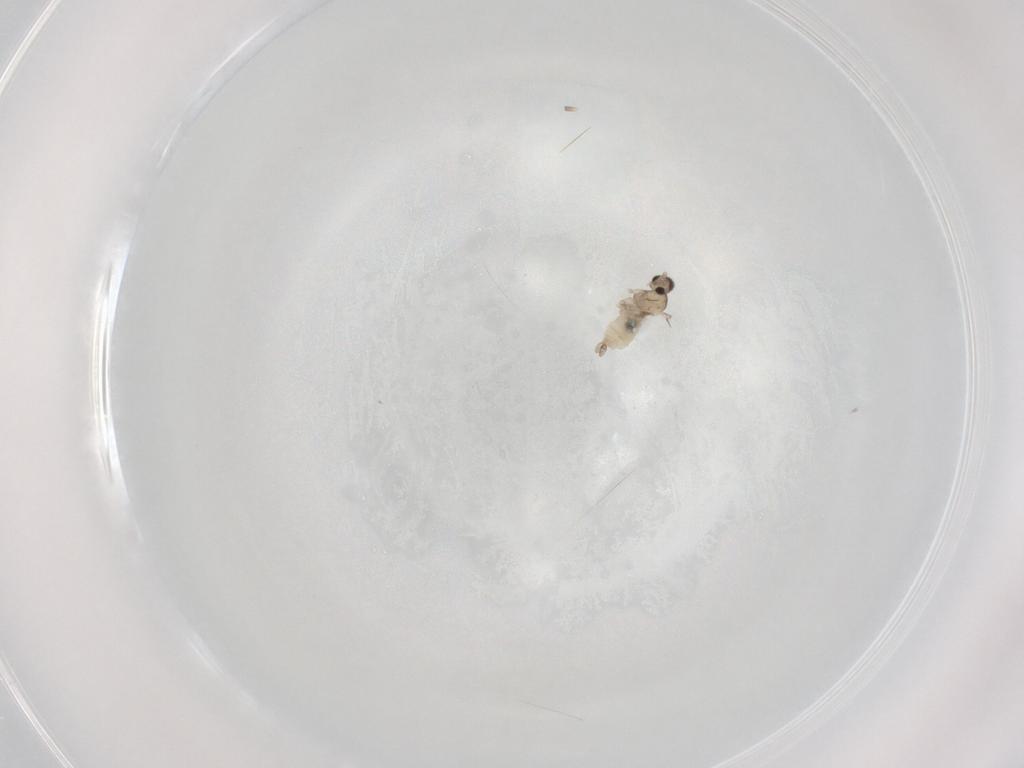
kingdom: Animalia
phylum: Arthropoda
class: Insecta
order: Diptera
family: Cecidomyiidae
